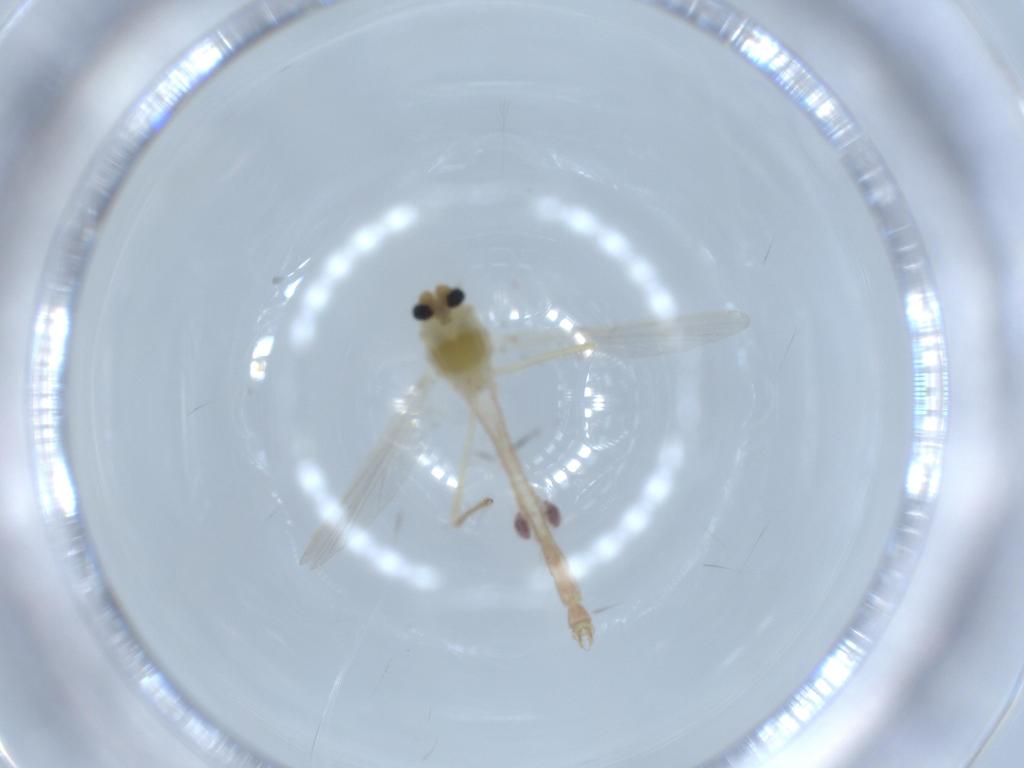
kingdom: Animalia
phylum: Arthropoda
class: Insecta
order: Diptera
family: Chironomidae
